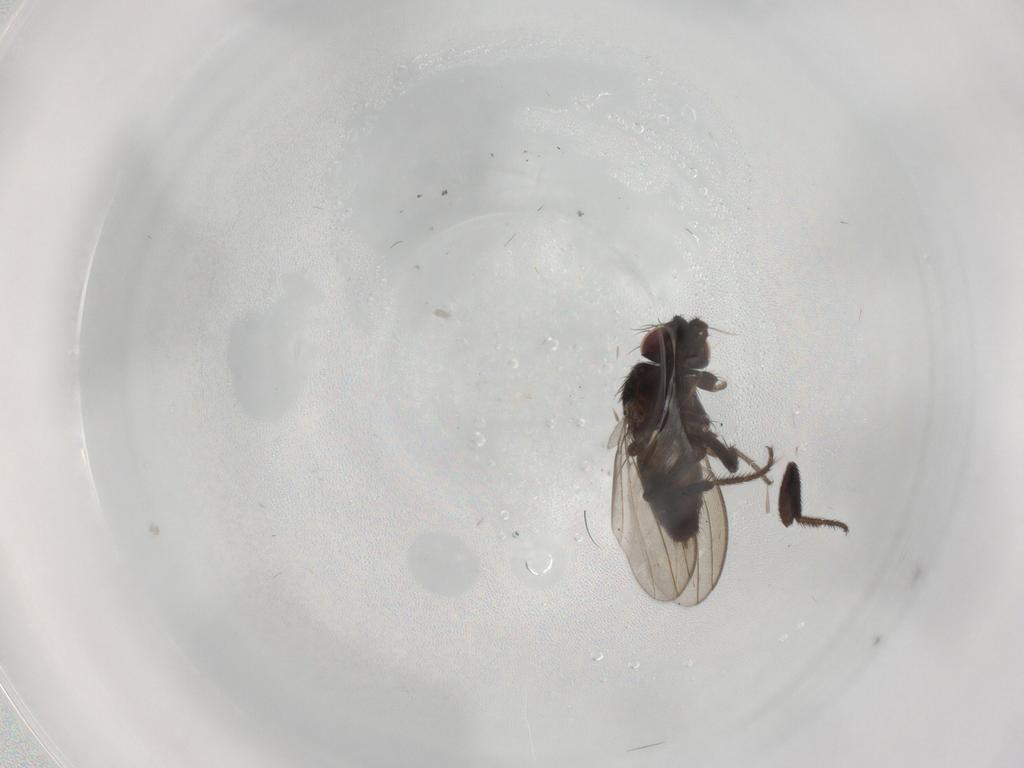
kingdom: Animalia
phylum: Arthropoda
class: Insecta
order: Diptera
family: Milichiidae
